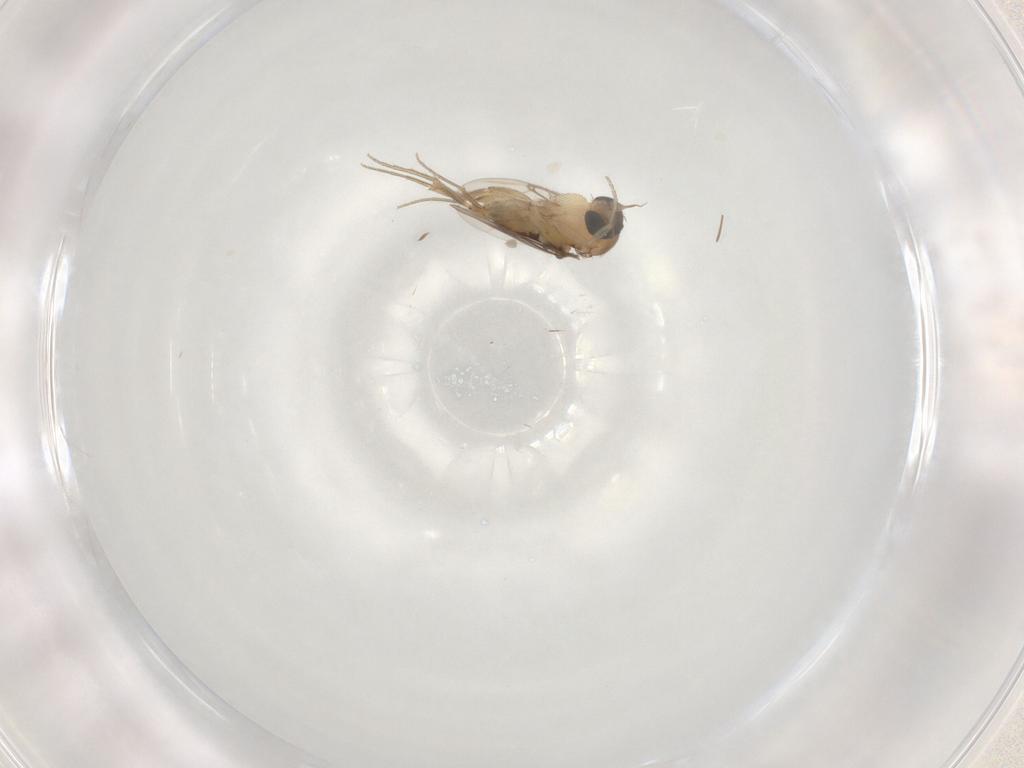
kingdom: Animalia
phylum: Arthropoda
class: Insecta
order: Diptera
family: Phoridae
